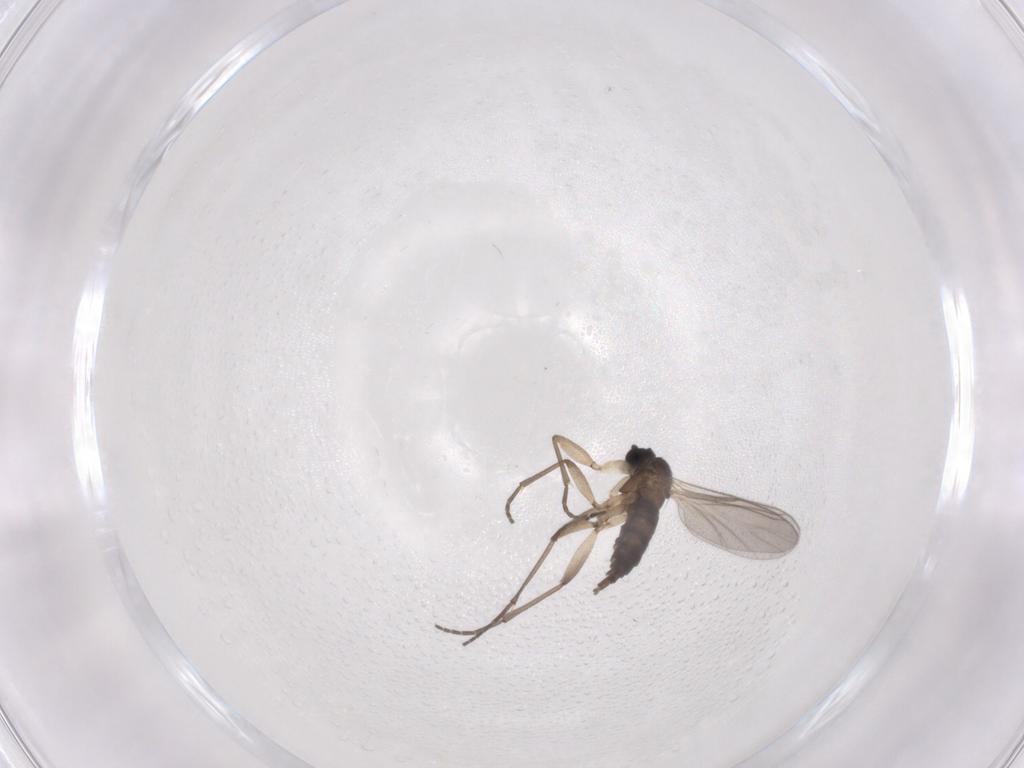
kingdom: Animalia
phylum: Arthropoda
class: Insecta
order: Diptera
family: Sciaridae
